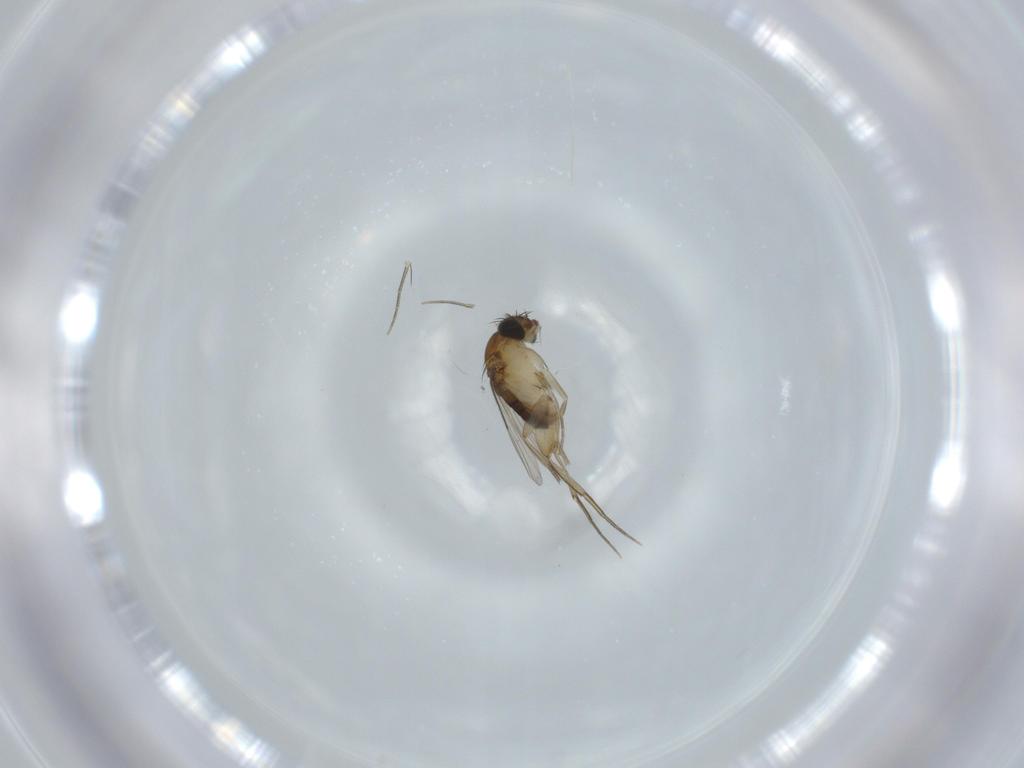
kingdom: Animalia
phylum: Arthropoda
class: Insecta
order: Diptera
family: Phoridae
